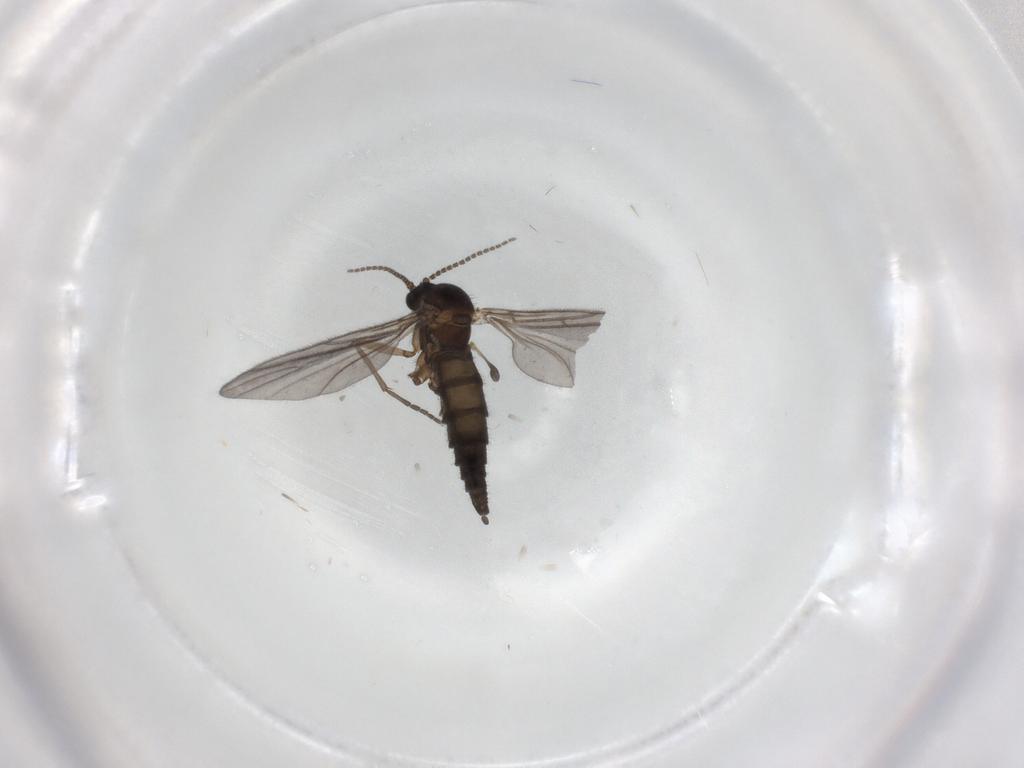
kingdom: Animalia
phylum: Arthropoda
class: Insecta
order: Diptera
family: Sciaridae
